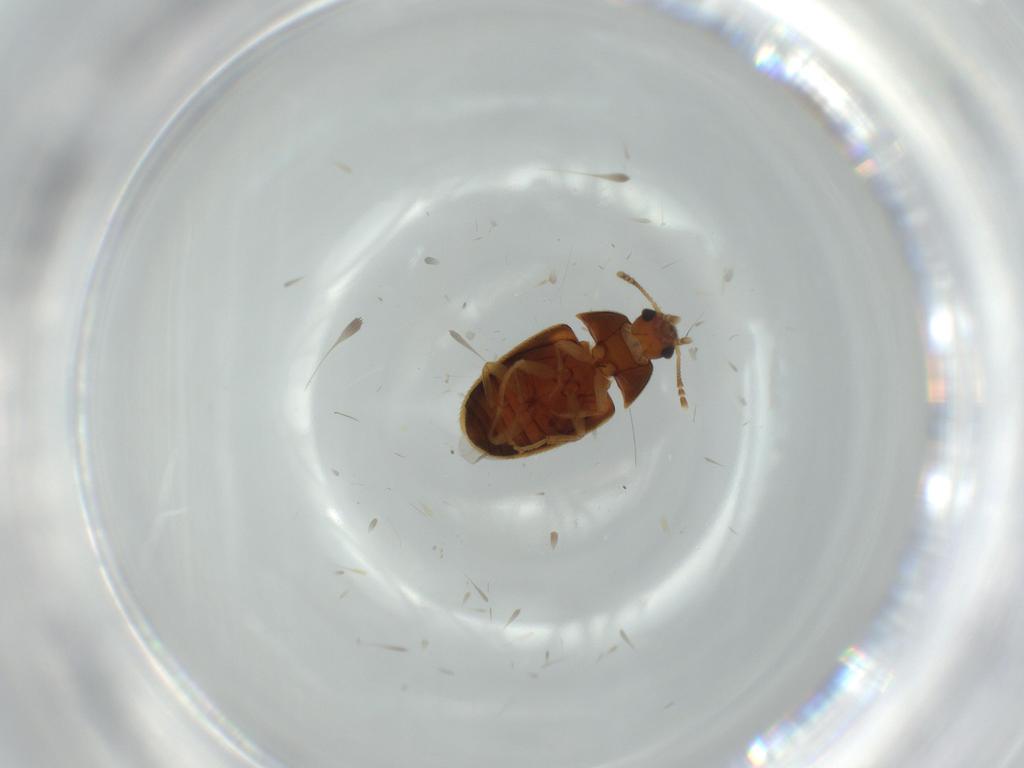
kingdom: Animalia
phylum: Arthropoda
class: Insecta
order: Coleoptera
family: Mycetophagidae
